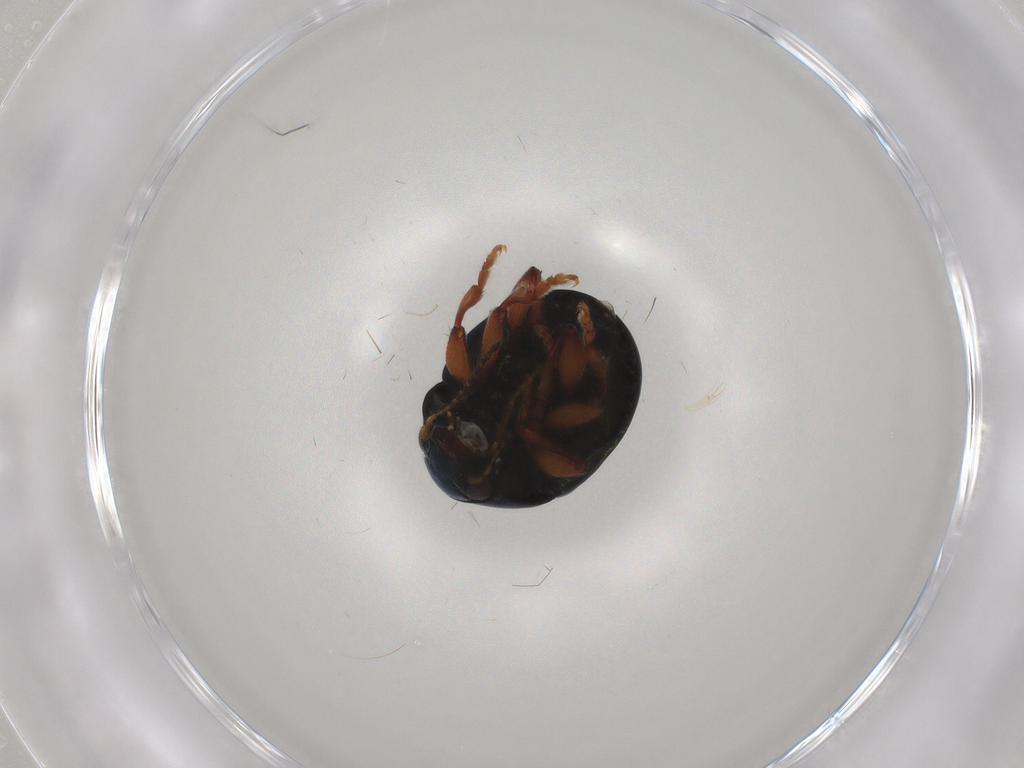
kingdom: Animalia
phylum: Arthropoda
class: Insecta
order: Coleoptera
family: Chrysomelidae
